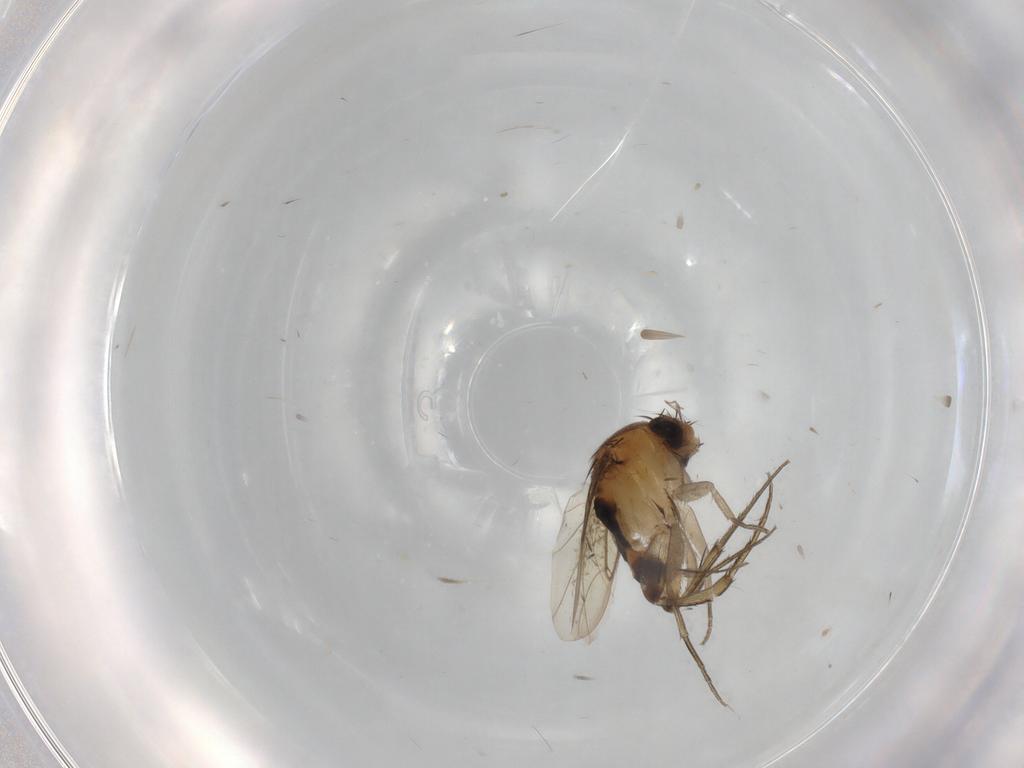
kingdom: Animalia
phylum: Arthropoda
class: Insecta
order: Diptera
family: Phoridae
